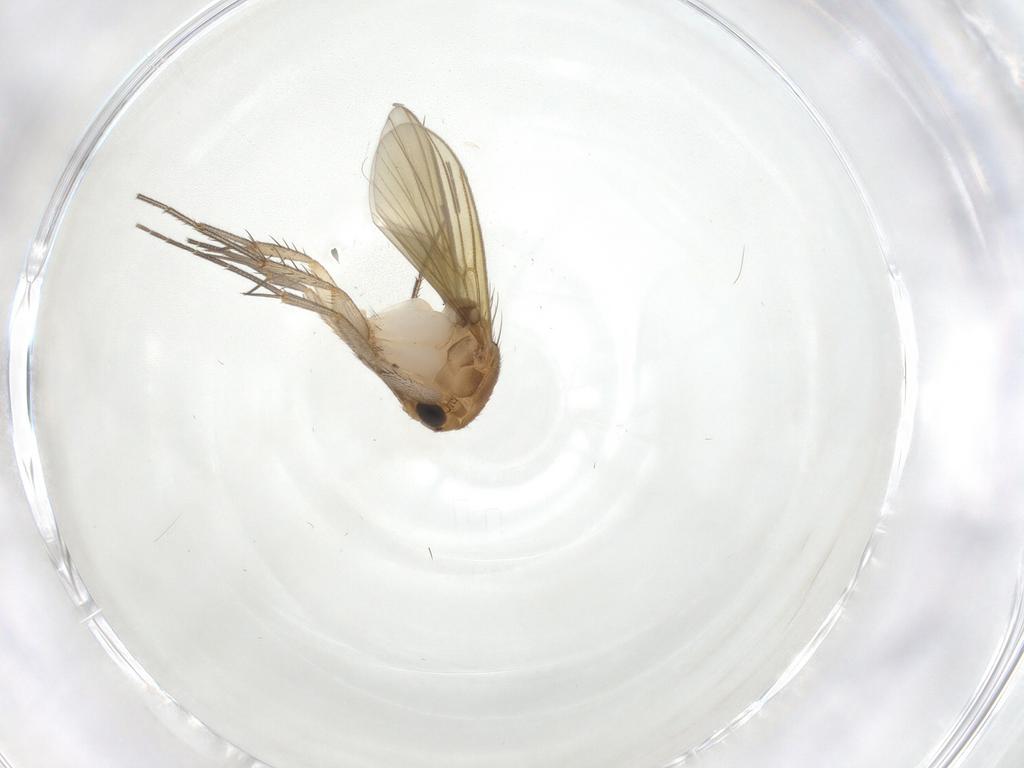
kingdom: Animalia
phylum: Arthropoda
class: Insecta
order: Diptera
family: Mycetophilidae
